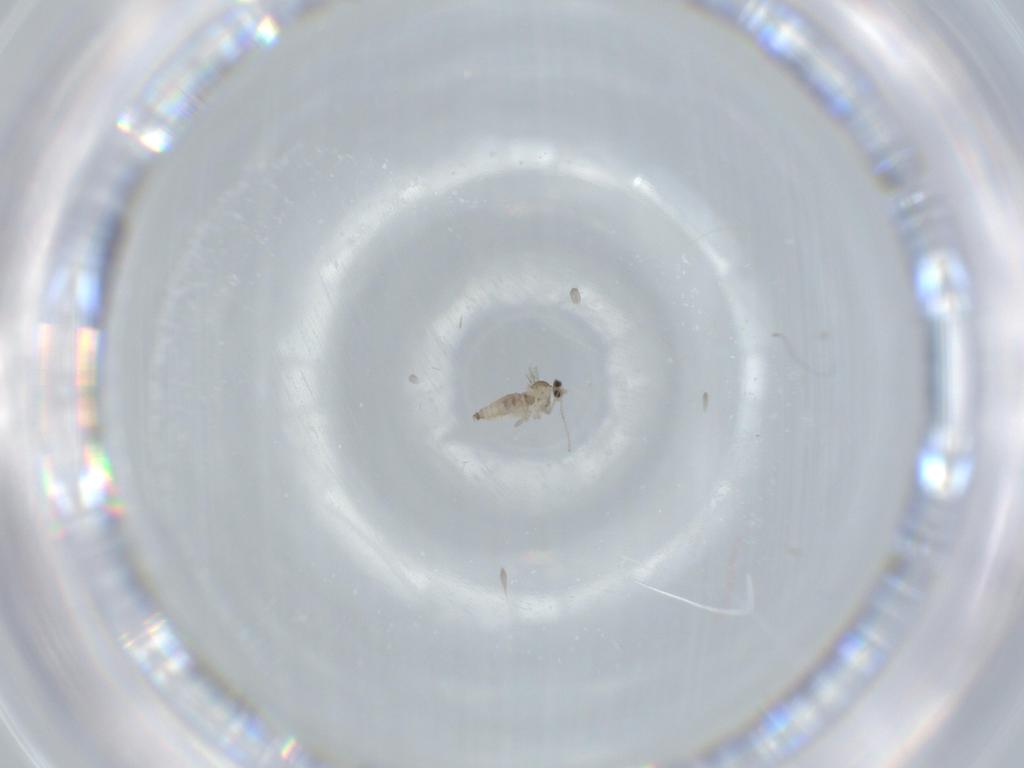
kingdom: Animalia
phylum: Arthropoda
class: Insecta
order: Diptera
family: Cecidomyiidae
